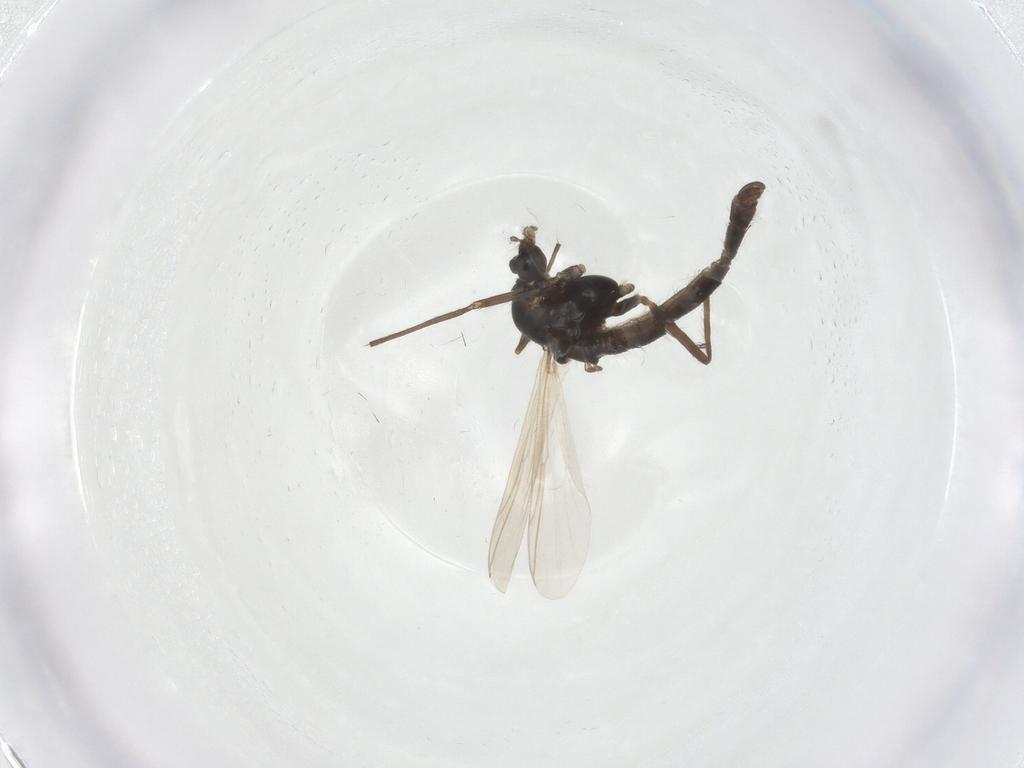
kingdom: Animalia
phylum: Arthropoda
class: Insecta
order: Diptera
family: Chironomidae
